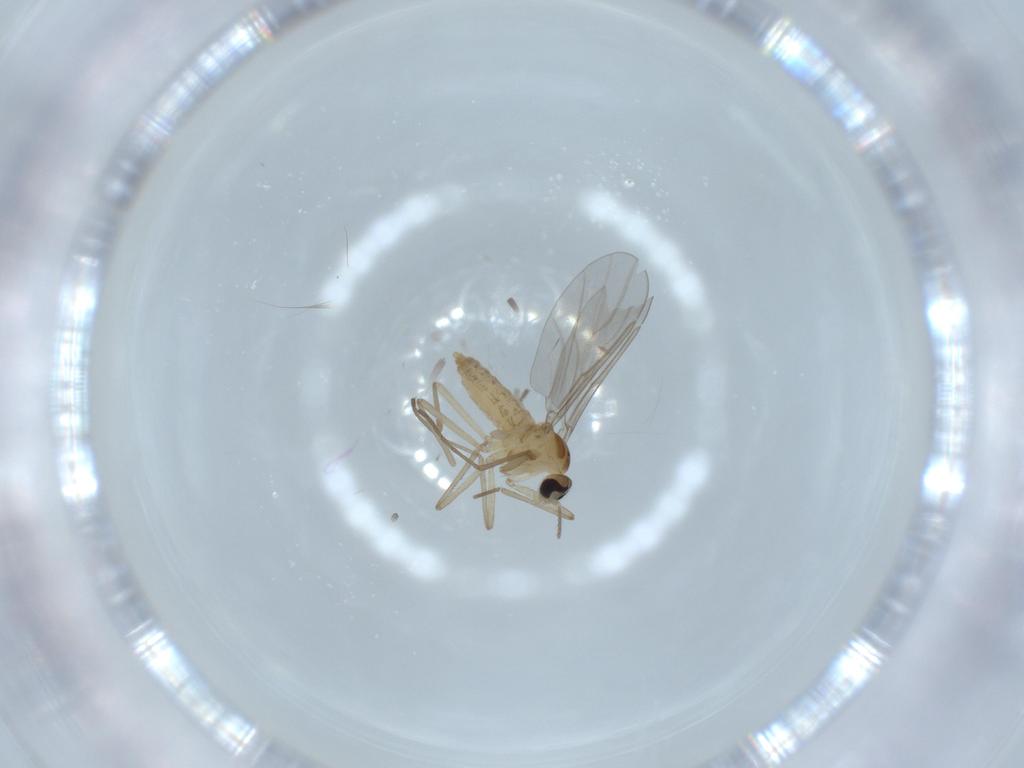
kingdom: Animalia
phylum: Arthropoda
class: Insecta
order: Diptera
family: Cecidomyiidae
